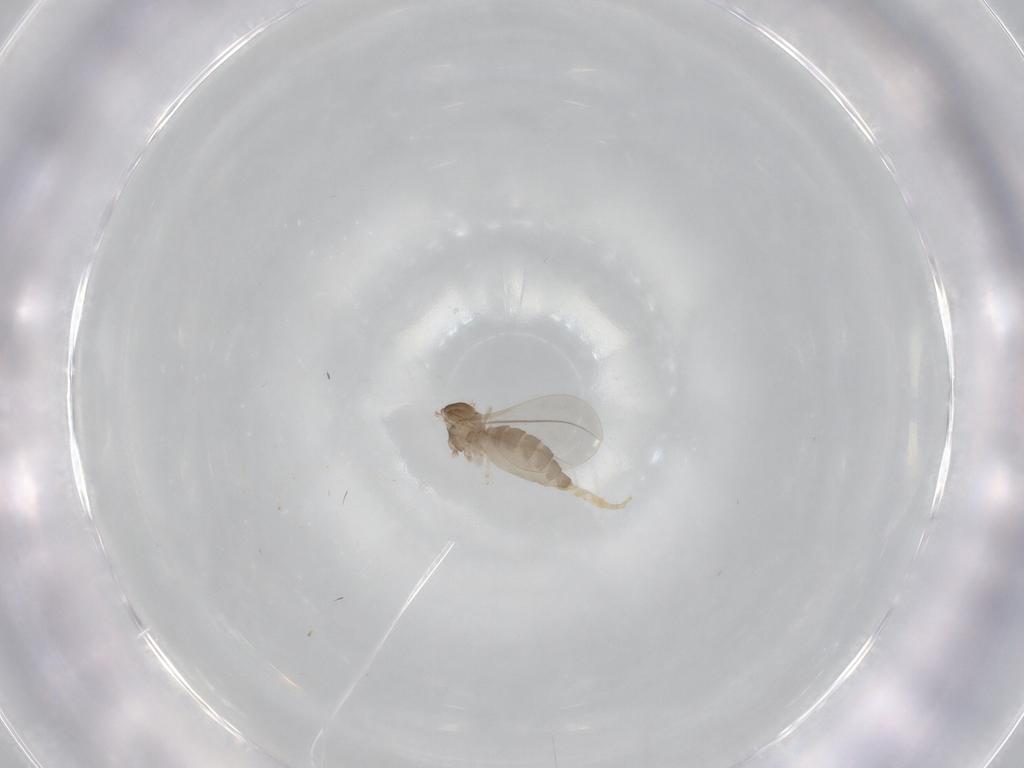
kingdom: Animalia
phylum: Arthropoda
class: Insecta
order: Diptera
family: Cecidomyiidae
